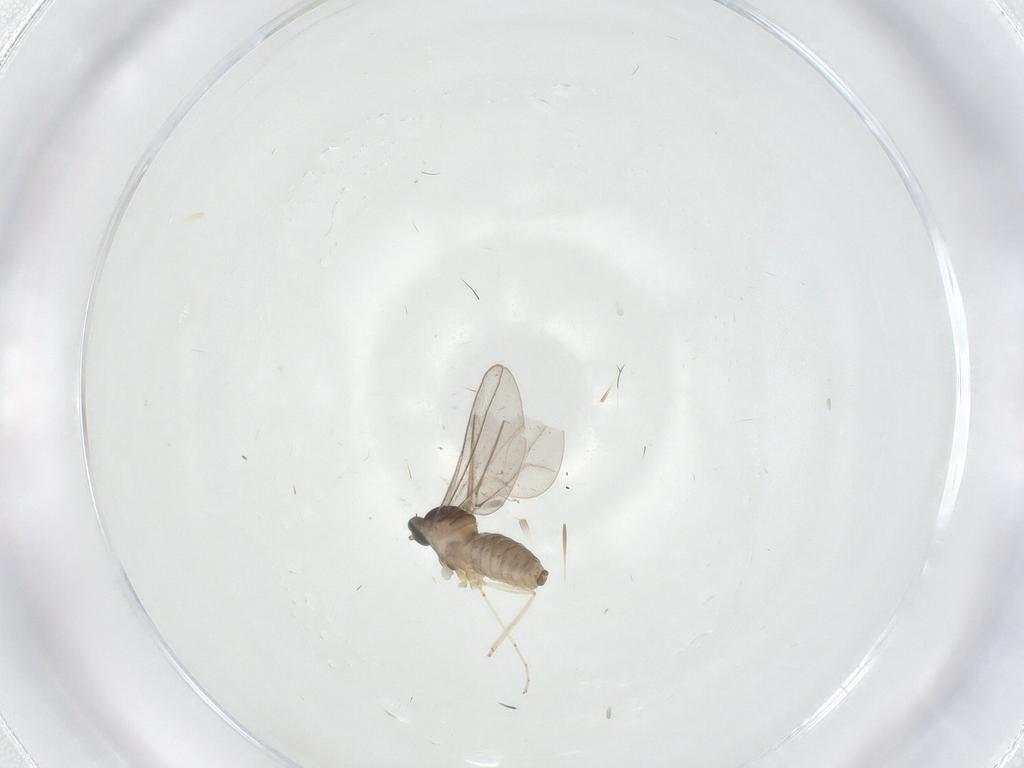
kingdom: Animalia
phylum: Arthropoda
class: Insecta
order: Diptera
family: Cecidomyiidae
